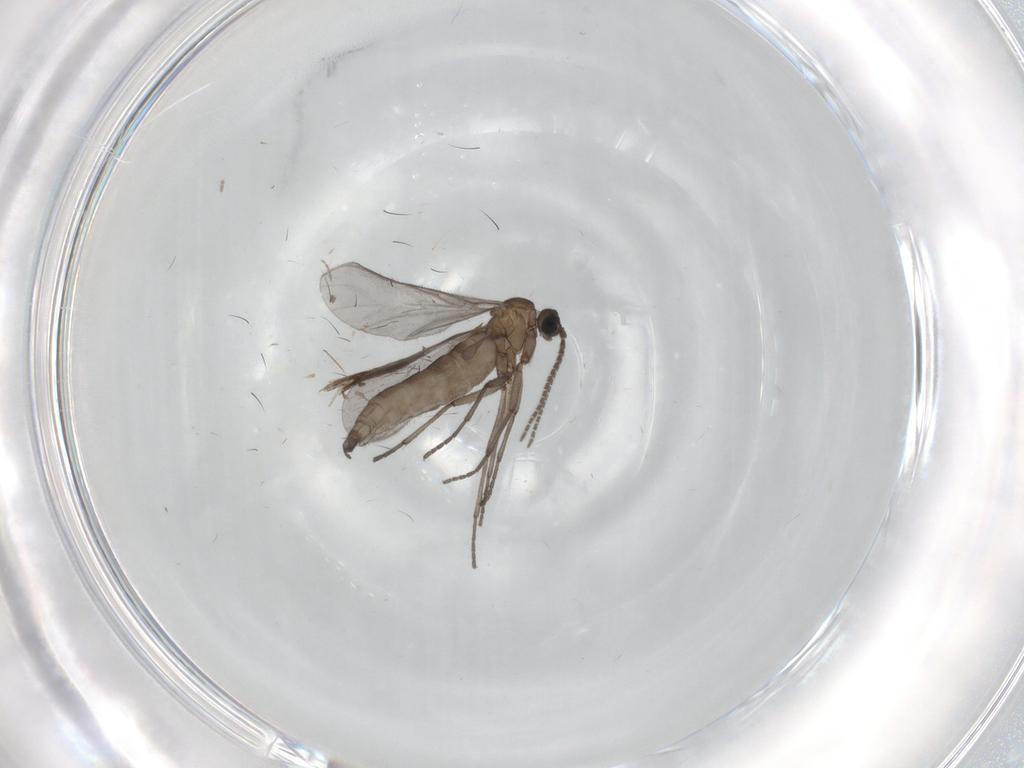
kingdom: Animalia
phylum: Arthropoda
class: Insecta
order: Diptera
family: Sciaridae
